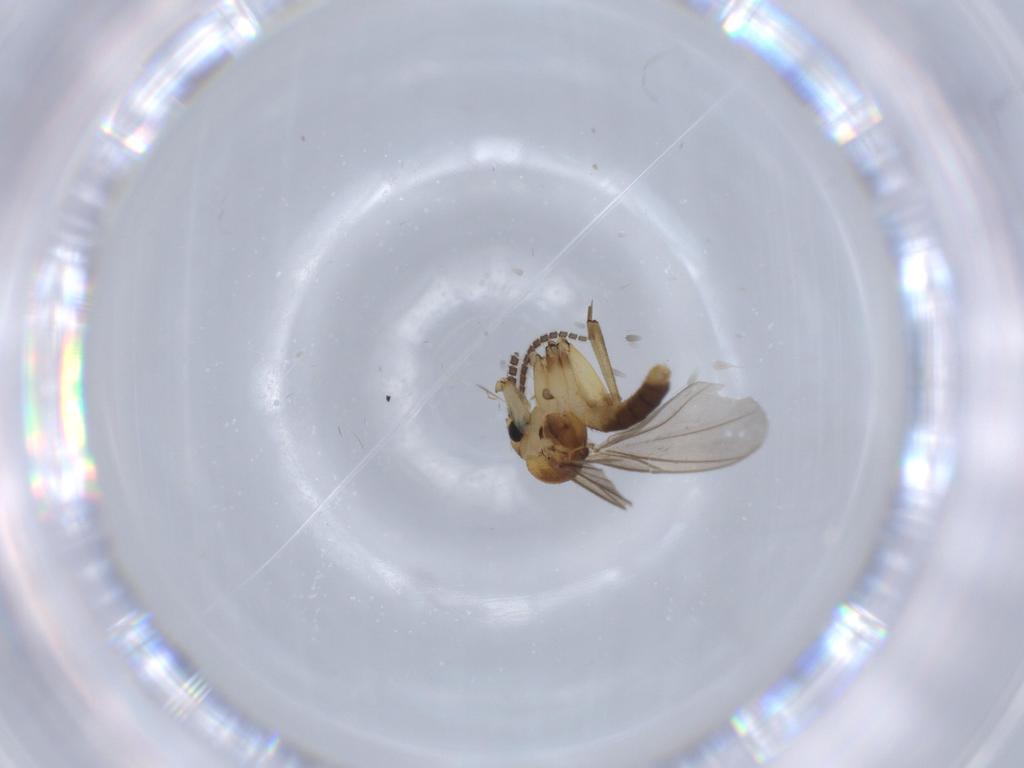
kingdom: Animalia
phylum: Arthropoda
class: Insecta
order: Diptera
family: Mycetophilidae
